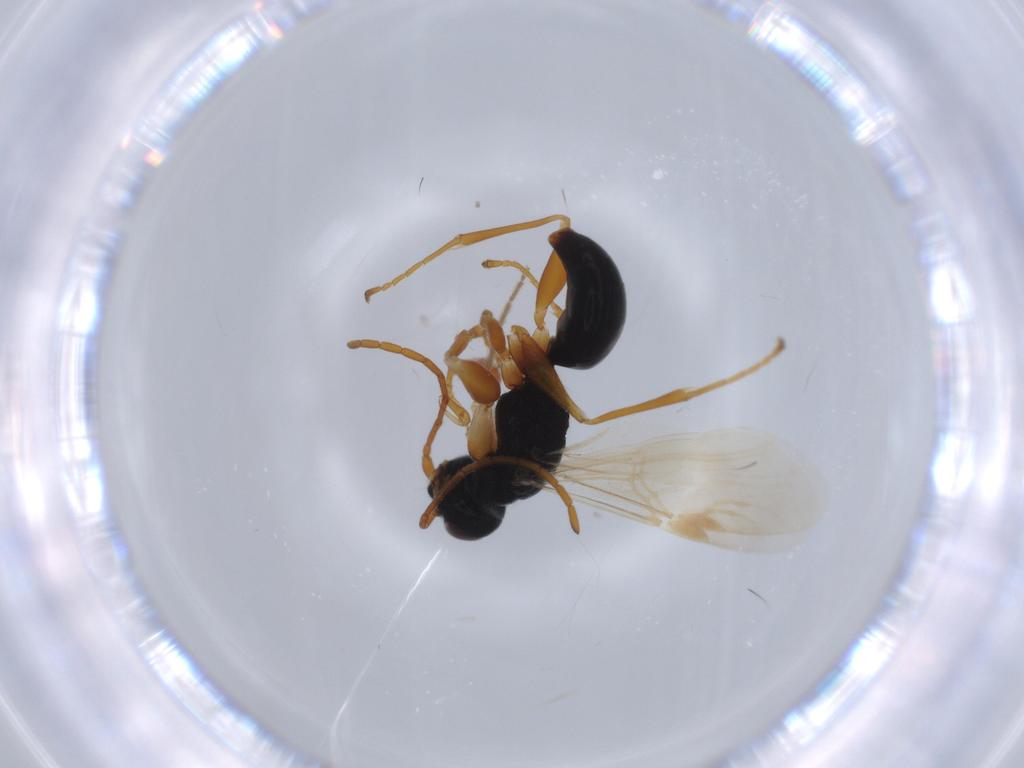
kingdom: Animalia
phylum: Arthropoda
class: Insecta
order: Hymenoptera
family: Dryinidae
